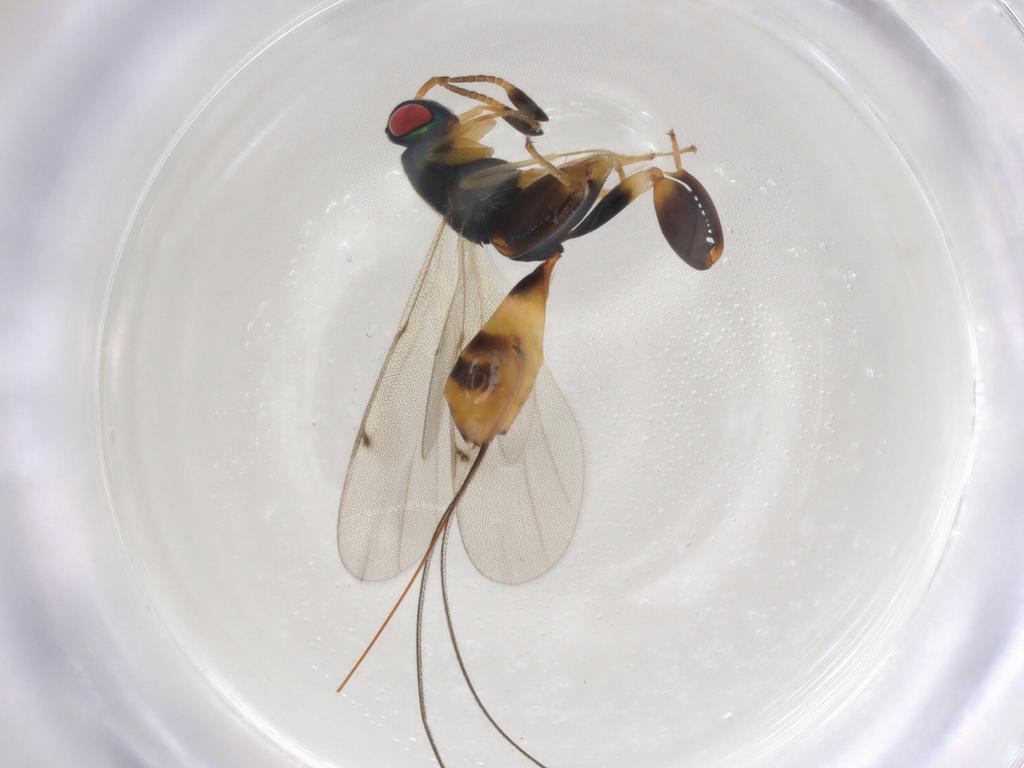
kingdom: Animalia
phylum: Arthropoda
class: Insecta
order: Hymenoptera
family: Torymidae
